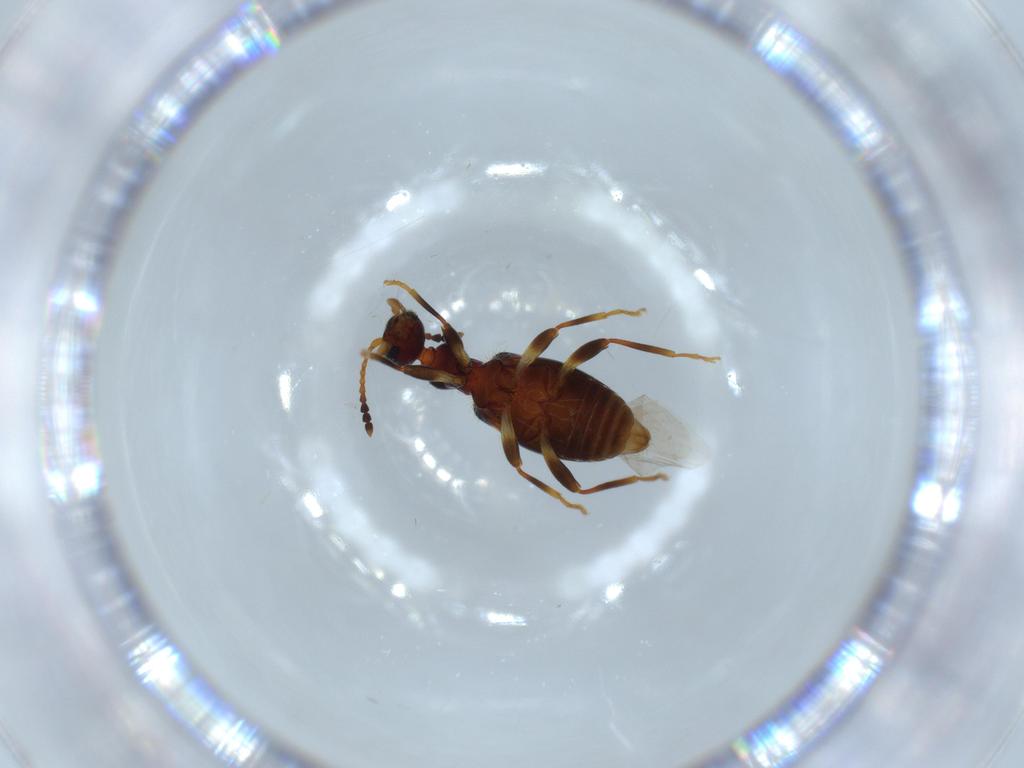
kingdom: Animalia
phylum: Arthropoda
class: Insecta
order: Coleoptera
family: Anthicidae
